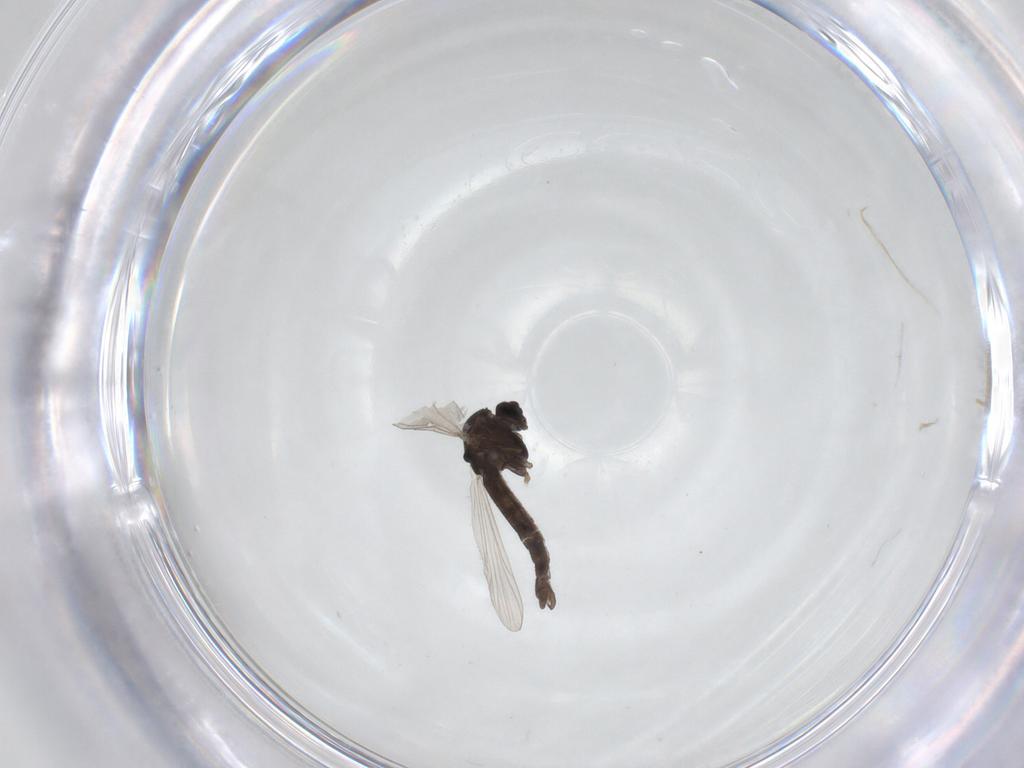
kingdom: Animalia
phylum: Arthropoda
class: Insecta
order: Diptera
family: Chironomidae
